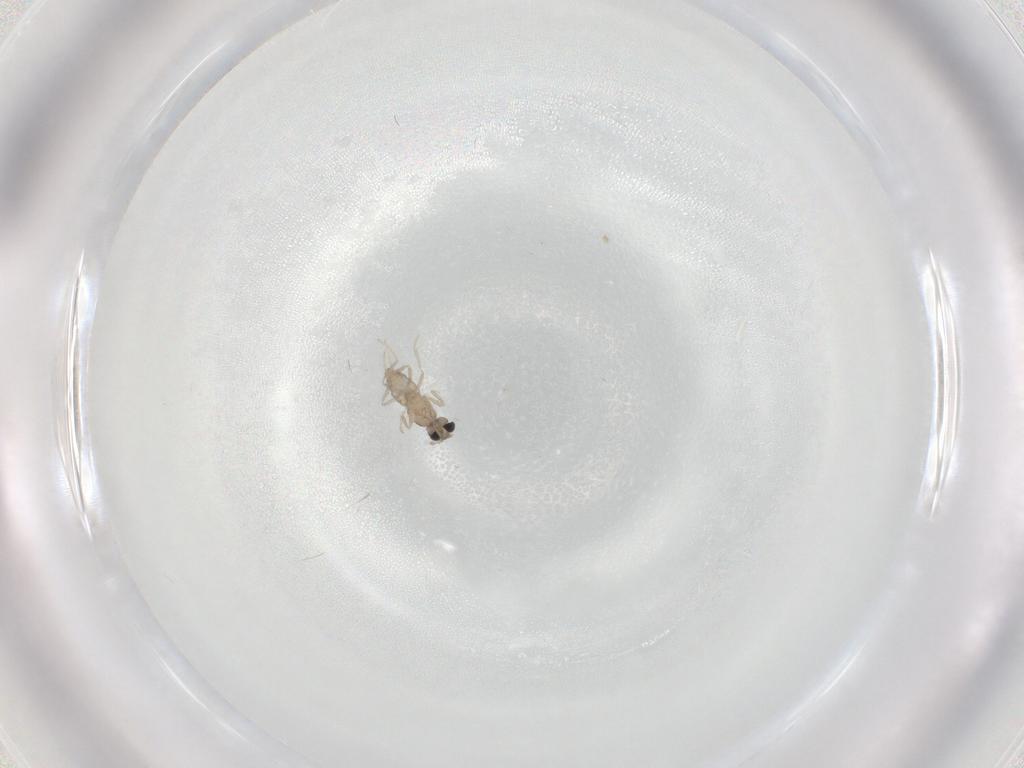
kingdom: Animalia
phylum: Arthropoda
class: Insecta
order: Diptera
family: Cecidomyiidae
